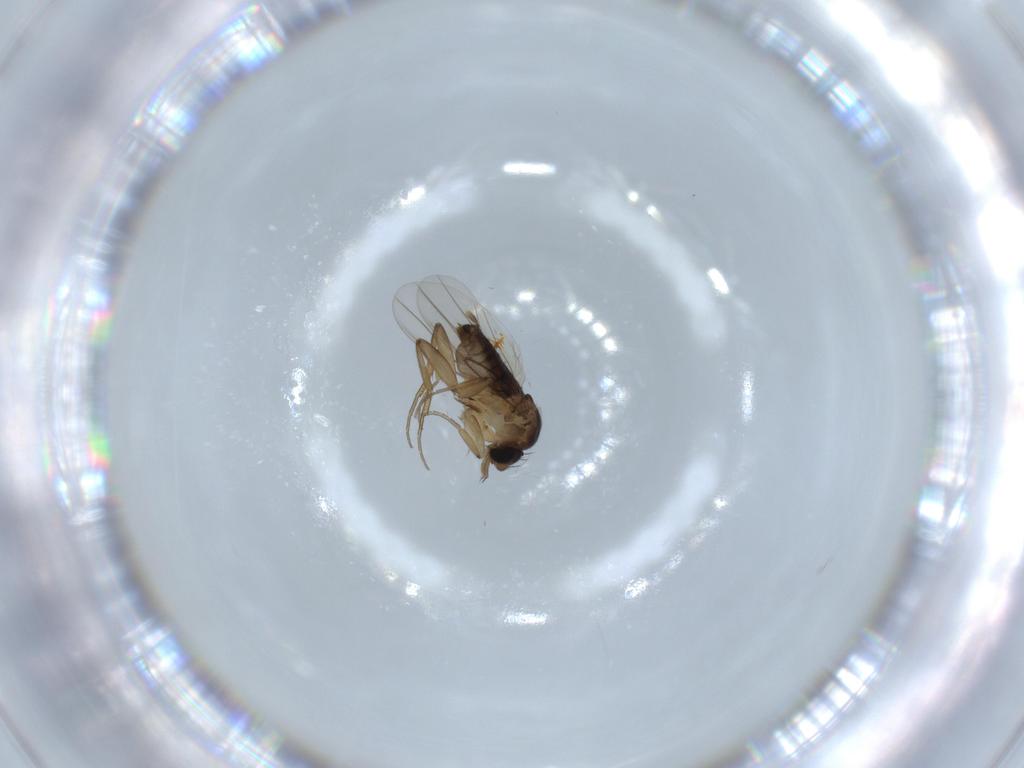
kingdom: Animalia
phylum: Arthropoda
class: Insecta
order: Diptera
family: Phoridae
